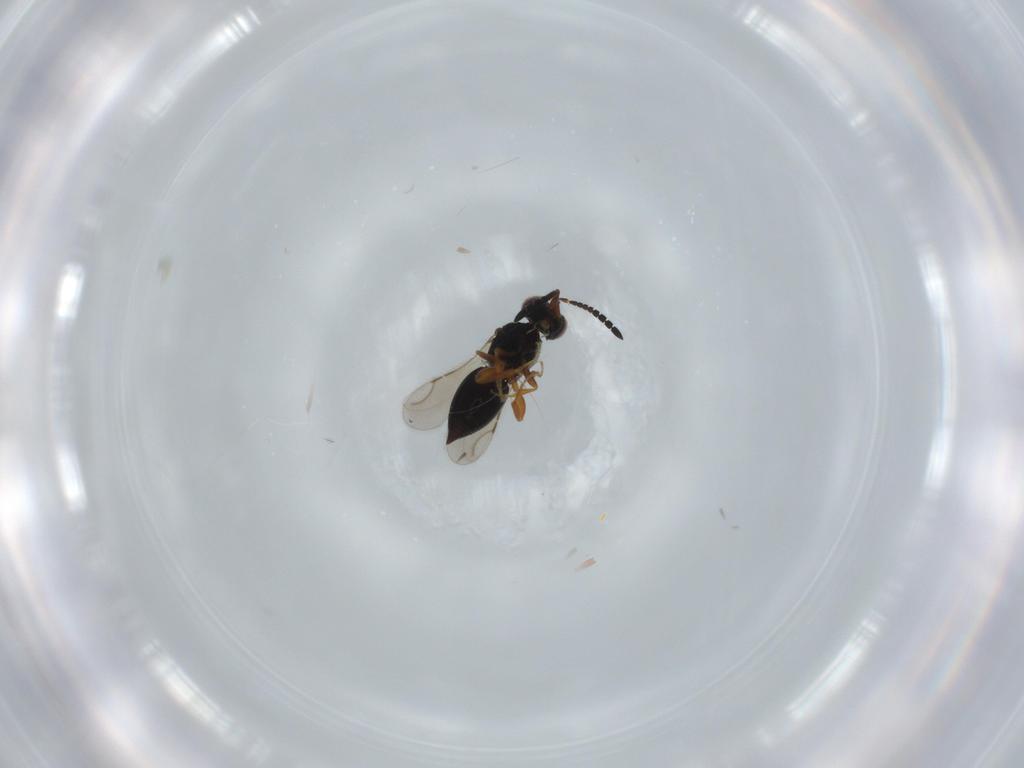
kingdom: Animalia
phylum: Arthropoda
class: Insecta
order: Hymenoptera
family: Ceraphronidae
